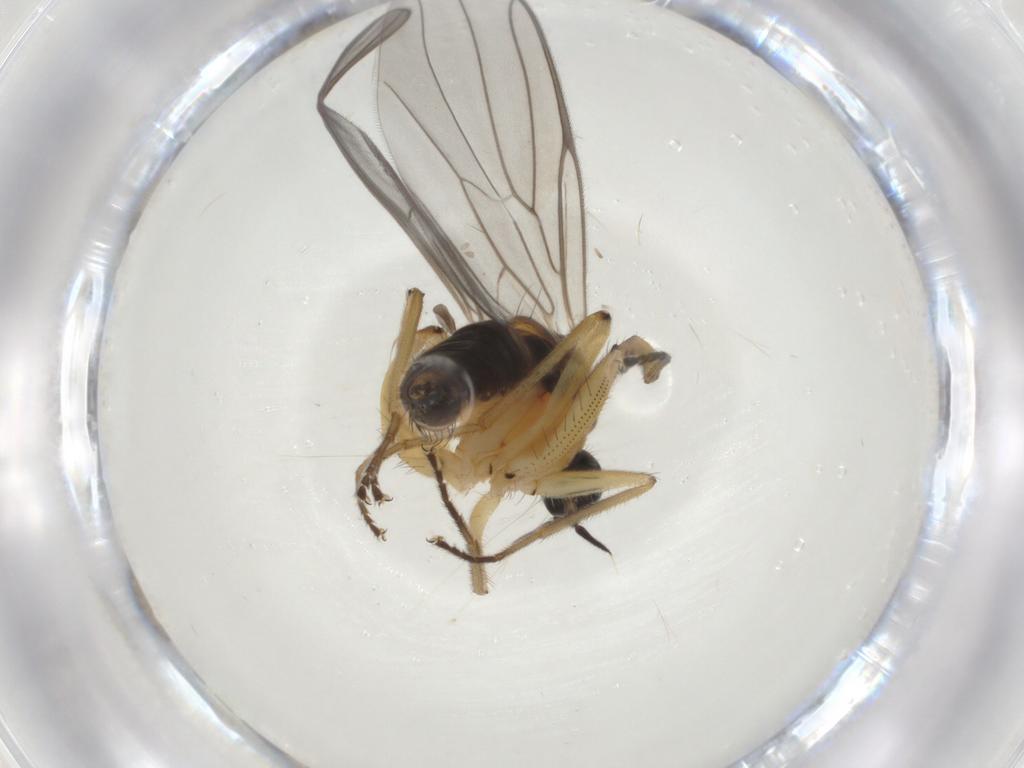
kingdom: Animalia
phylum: Arthropoda
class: Insecta
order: Diptera
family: Hybotidae
